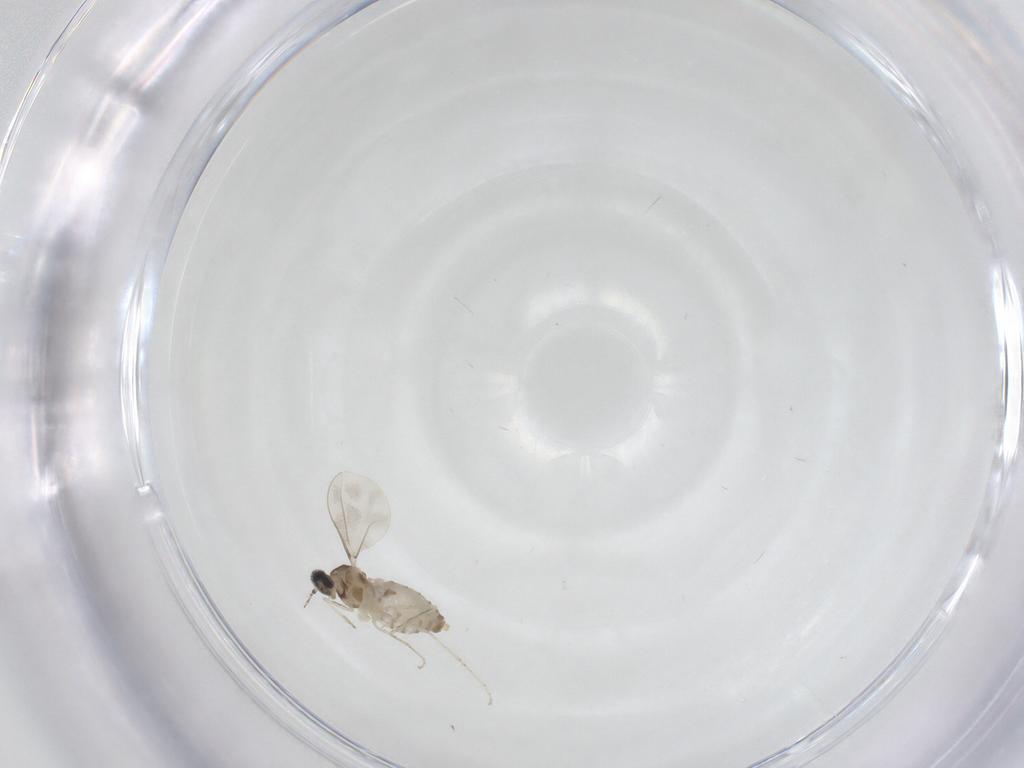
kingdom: Animalia
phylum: Arthropoda
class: Insecta
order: Diptera
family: Cecidomyiidae
